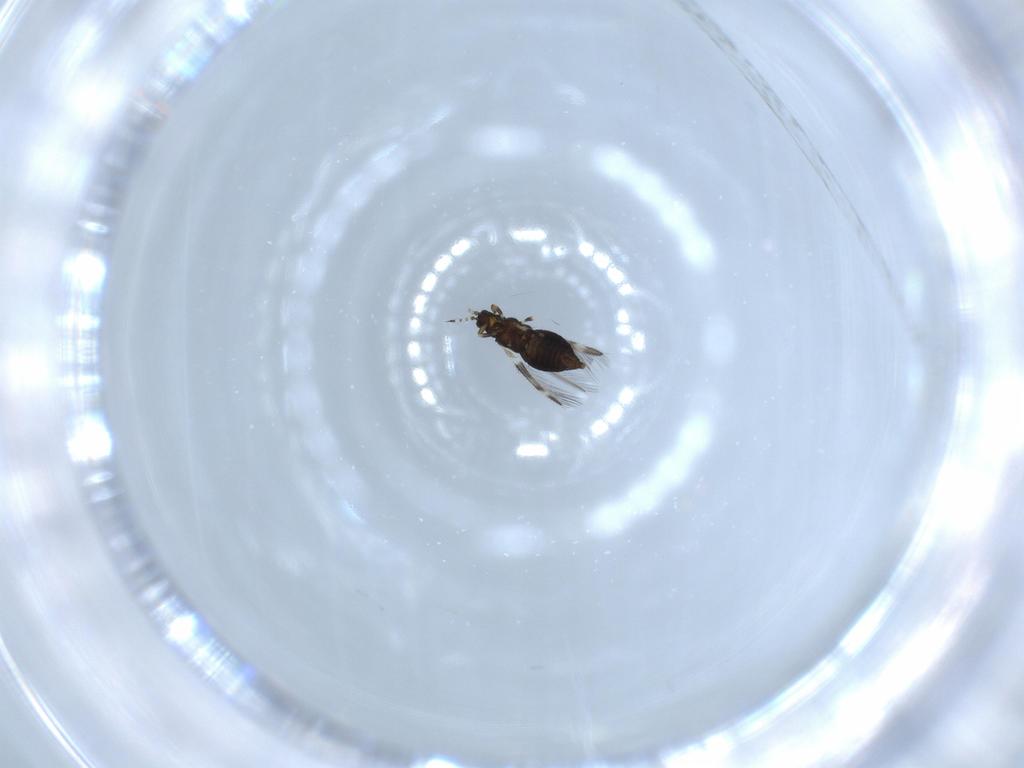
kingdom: Animalia
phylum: Arthropoda
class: Insecta
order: Thysanoptera
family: Thripidae
